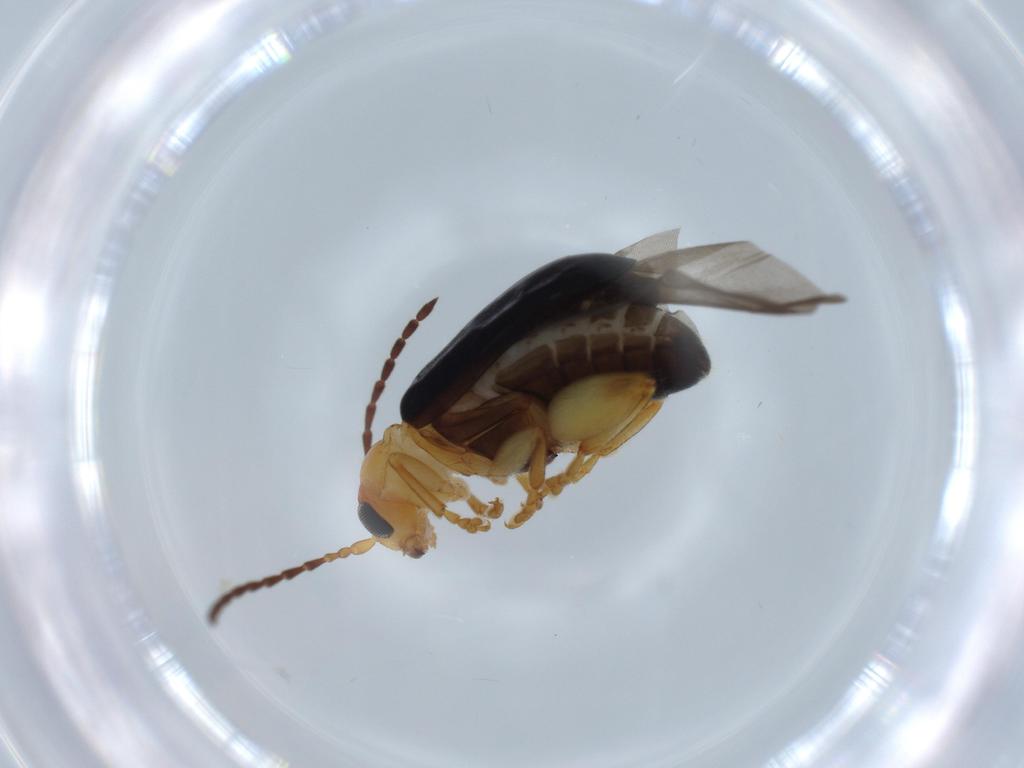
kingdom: Animalia
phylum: Arthropoda
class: Insecta
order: Coleoptera
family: Chrysomelidae
